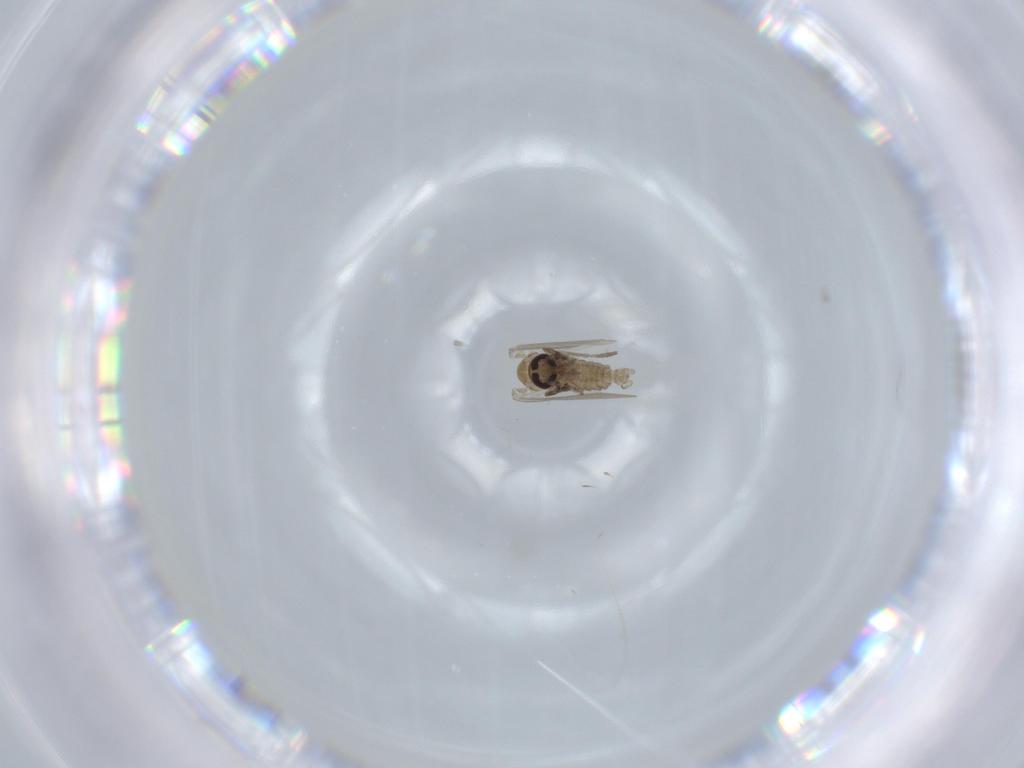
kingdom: Animalia
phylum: Arthropoda
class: Insecta
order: Diptera
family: Psychodidae
